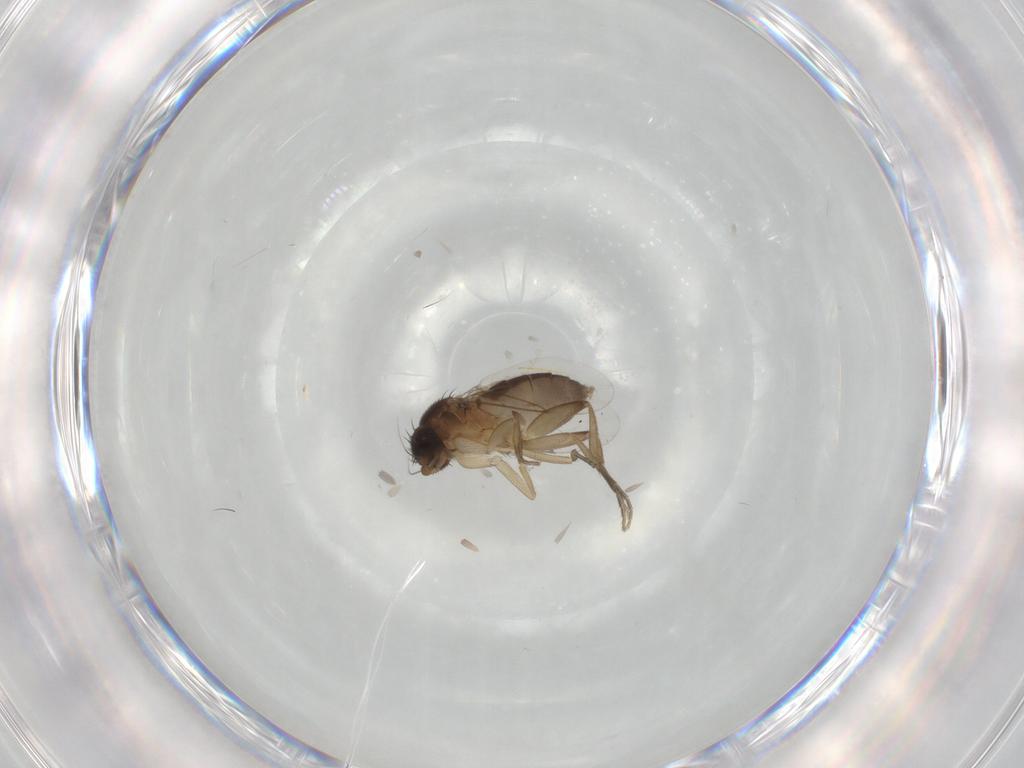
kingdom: Animalia
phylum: Arthropoda
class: Insecta
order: Diptera
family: Phoridae
